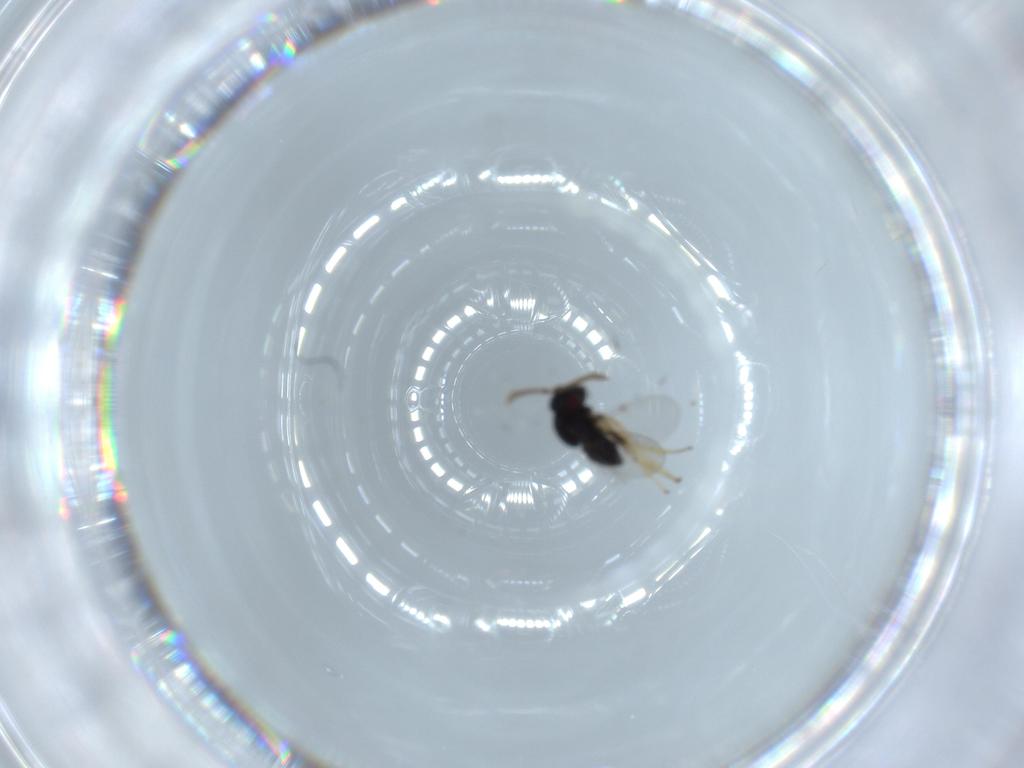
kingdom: Animalia
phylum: Arthropoda
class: Insecta
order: Hymenoptera
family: Encyrtidae
